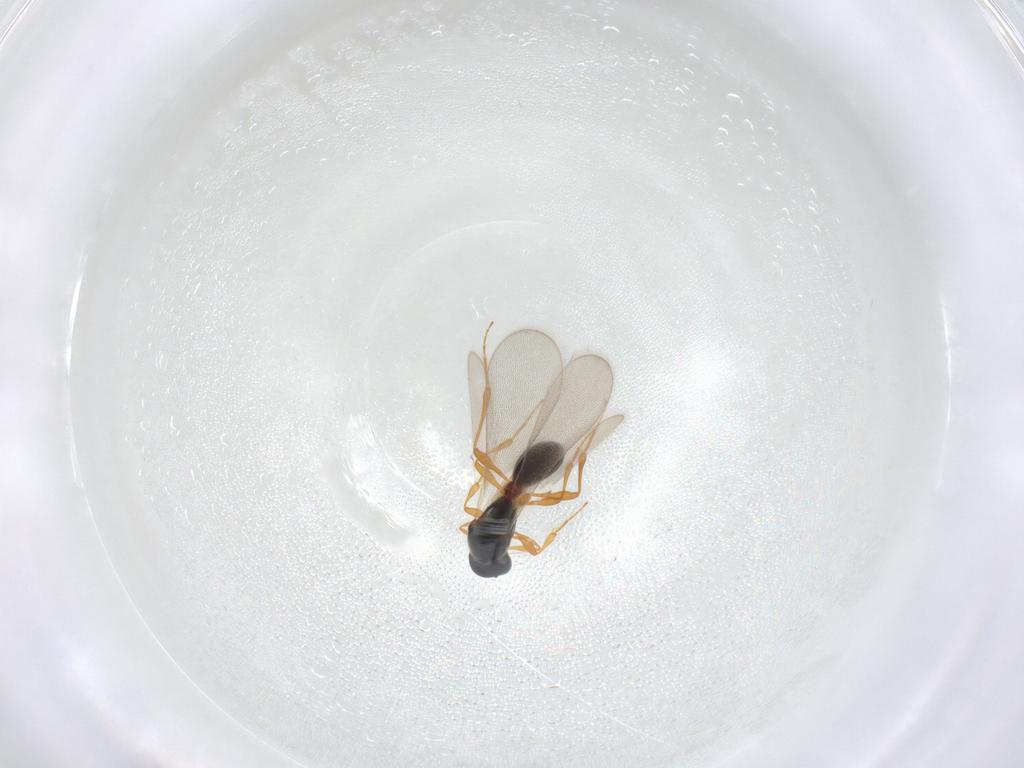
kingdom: Animalia
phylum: Arthropoda
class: Insecta
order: Hymenoptera
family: Platygastridae
